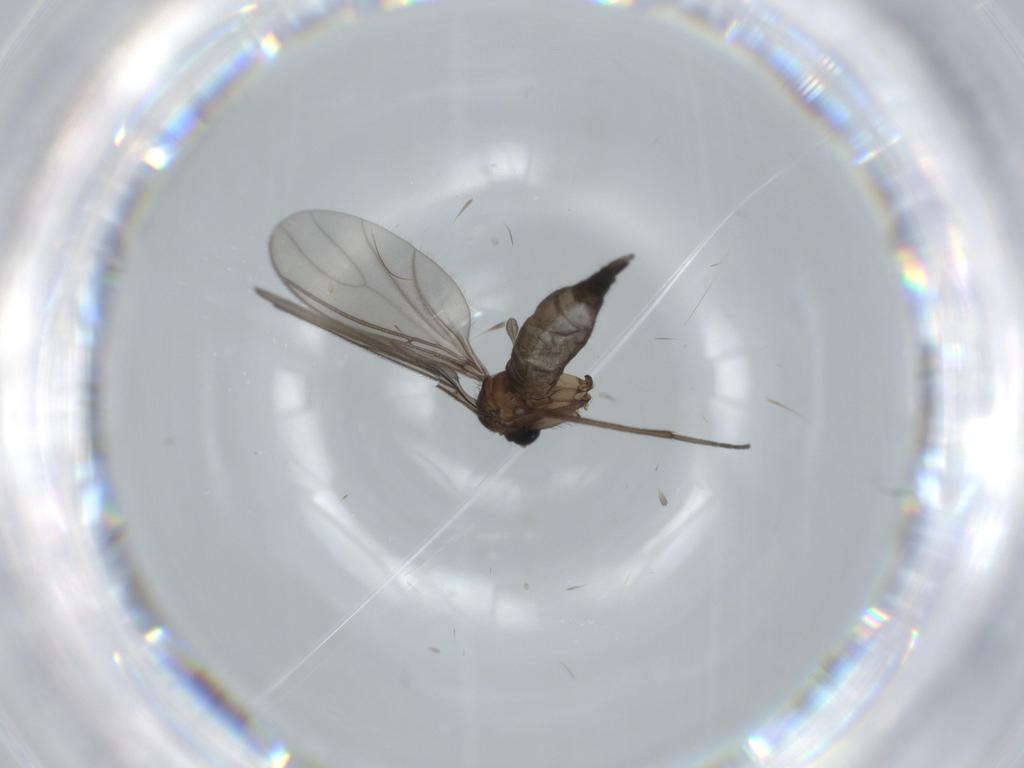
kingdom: Animalia
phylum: Arthropoda
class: Insecta
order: Diptera
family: Sciaridae
